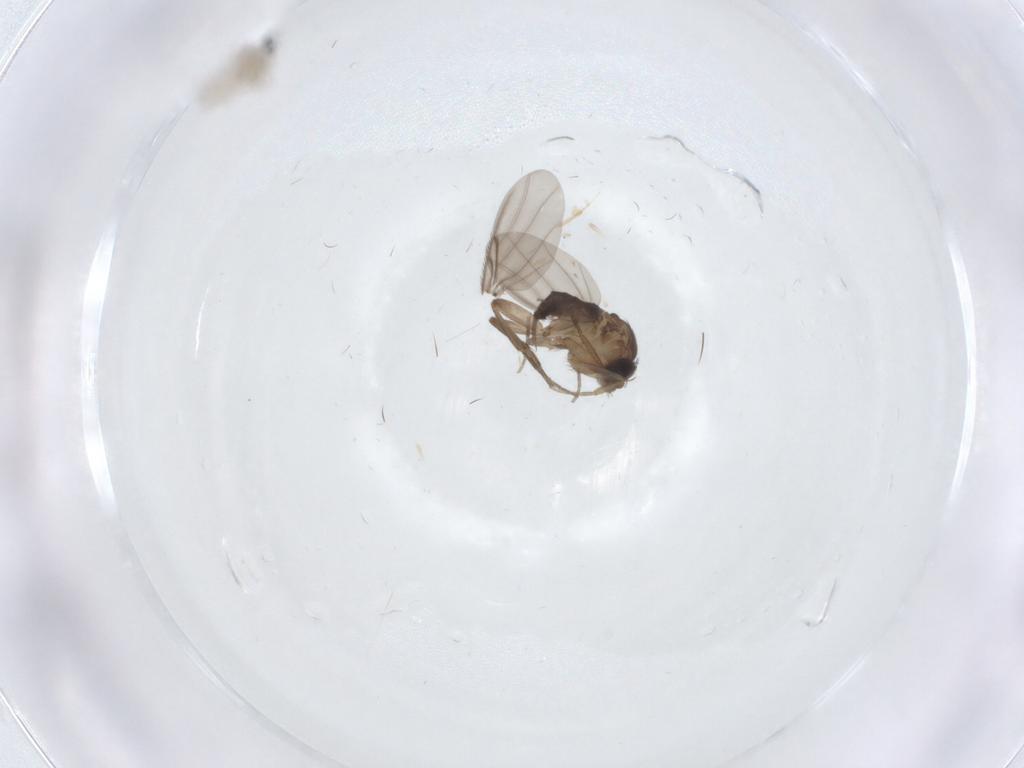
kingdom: Animalia
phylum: Arthropoda
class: Insecta
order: Diptera
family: Phoridae
